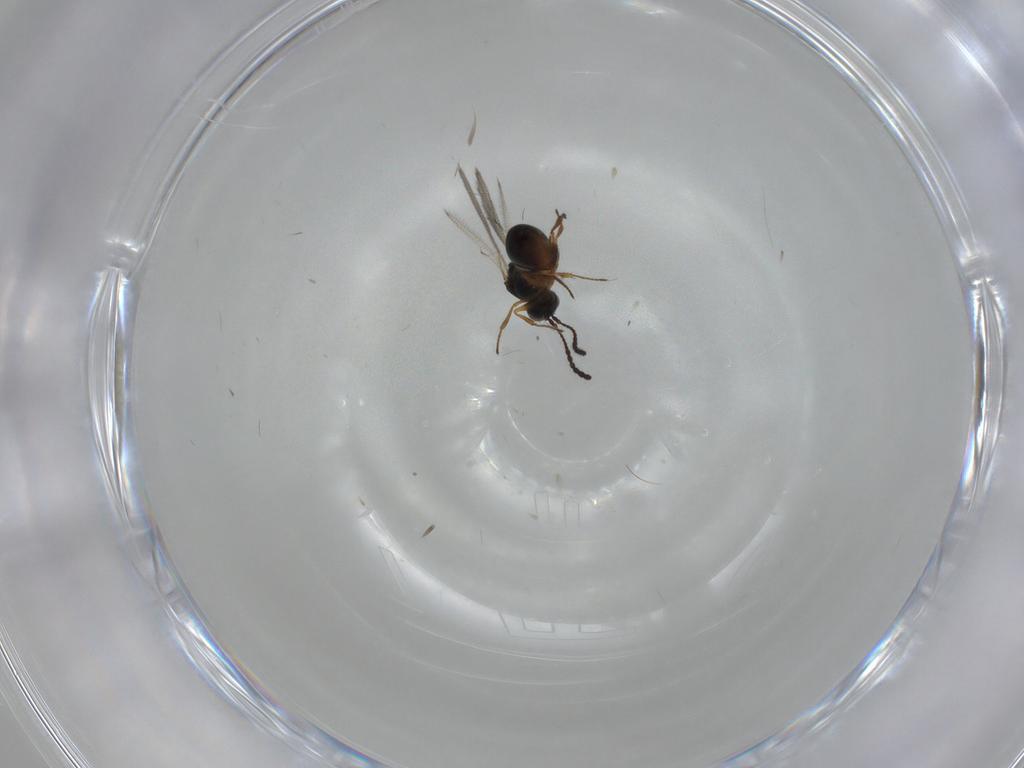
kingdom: Animalia
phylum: Arthropoda
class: Insecta
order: Hymenoptera
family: Figitidae
